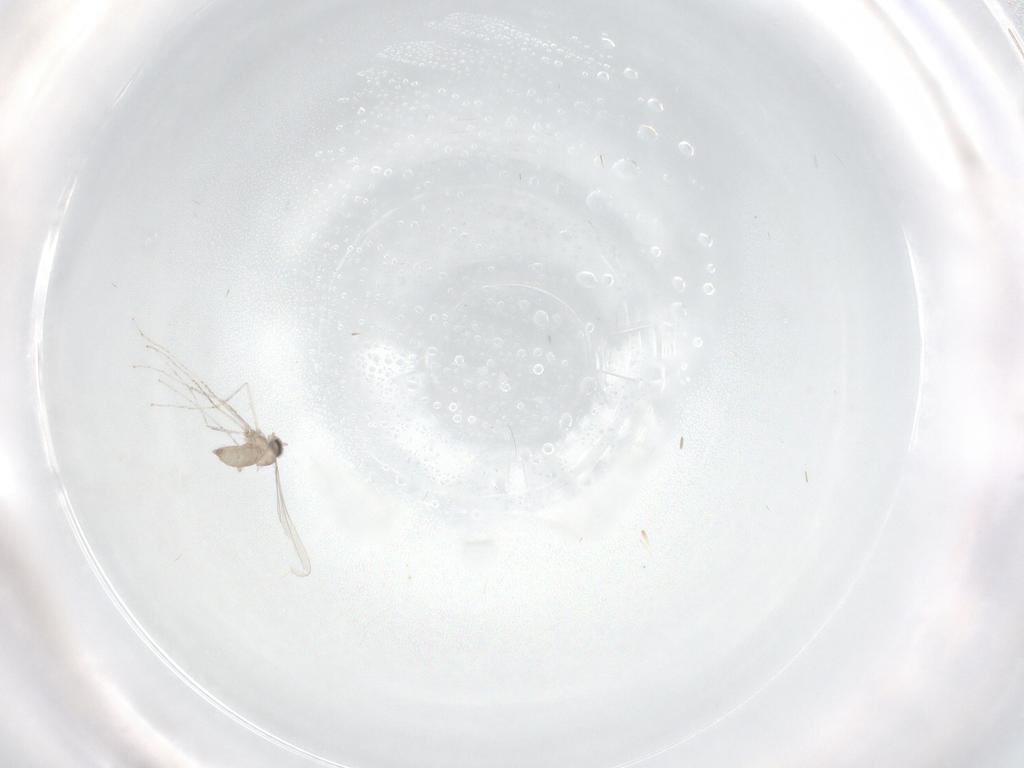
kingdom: Animalia
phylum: Arthropoda
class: Insecta
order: Diptera
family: Cecidomyiidae
